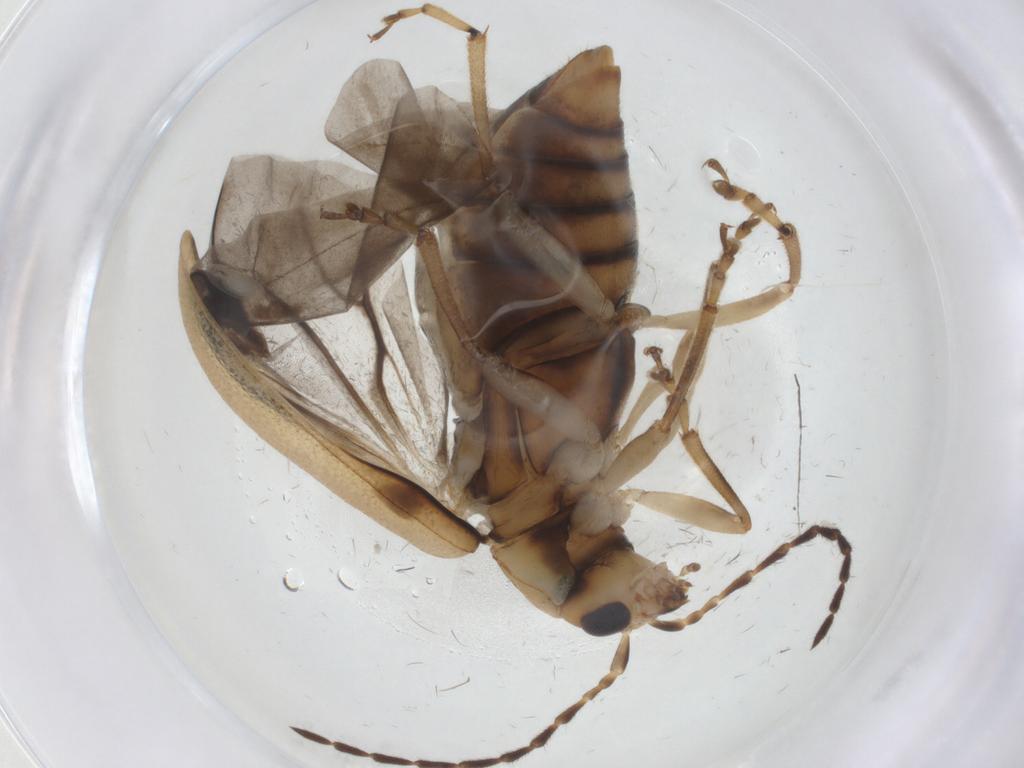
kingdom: Animalia
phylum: Arthropoda
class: Insecta
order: Coleoptera
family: Chrysomelidae
